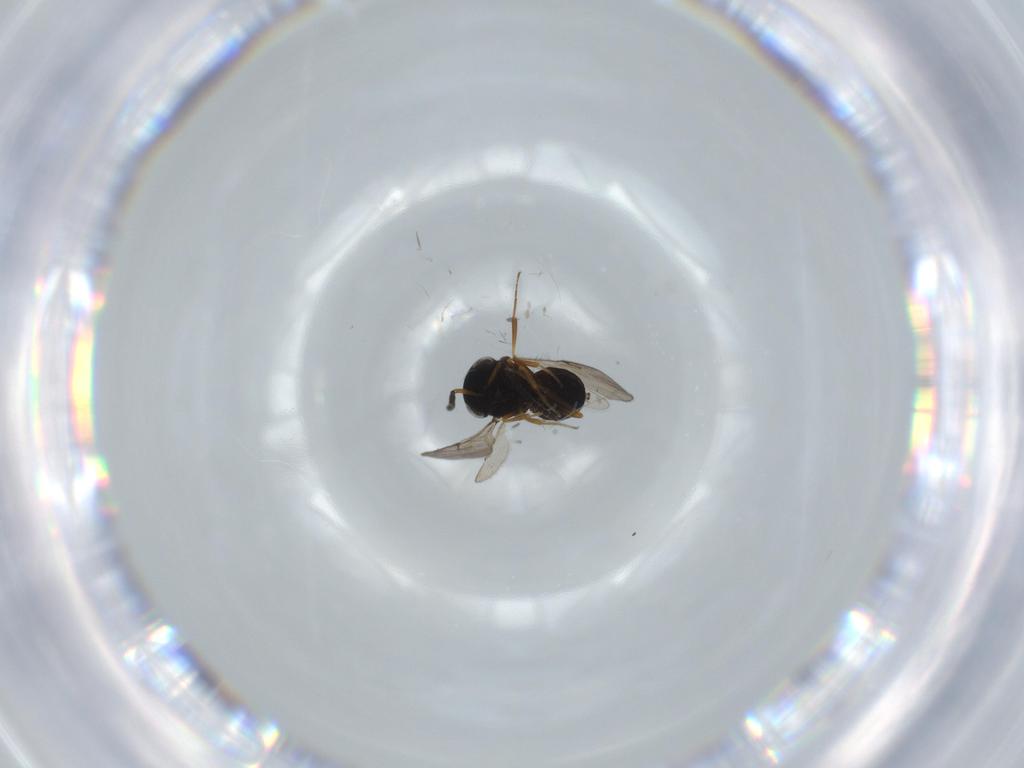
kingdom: Animalia
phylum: Arthropoda
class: Insecta
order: Hymenoptera
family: Scelionidae
